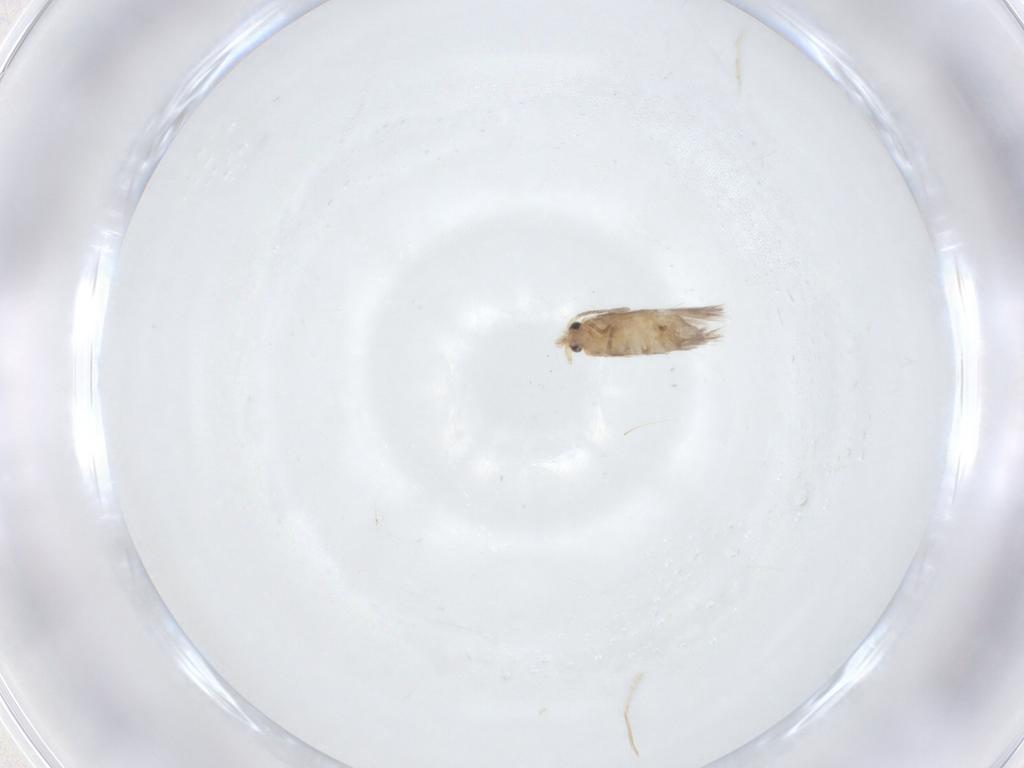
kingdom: Animalia
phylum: Arthropoda
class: Insecta
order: Lepidoptera
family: Nepticulidae
